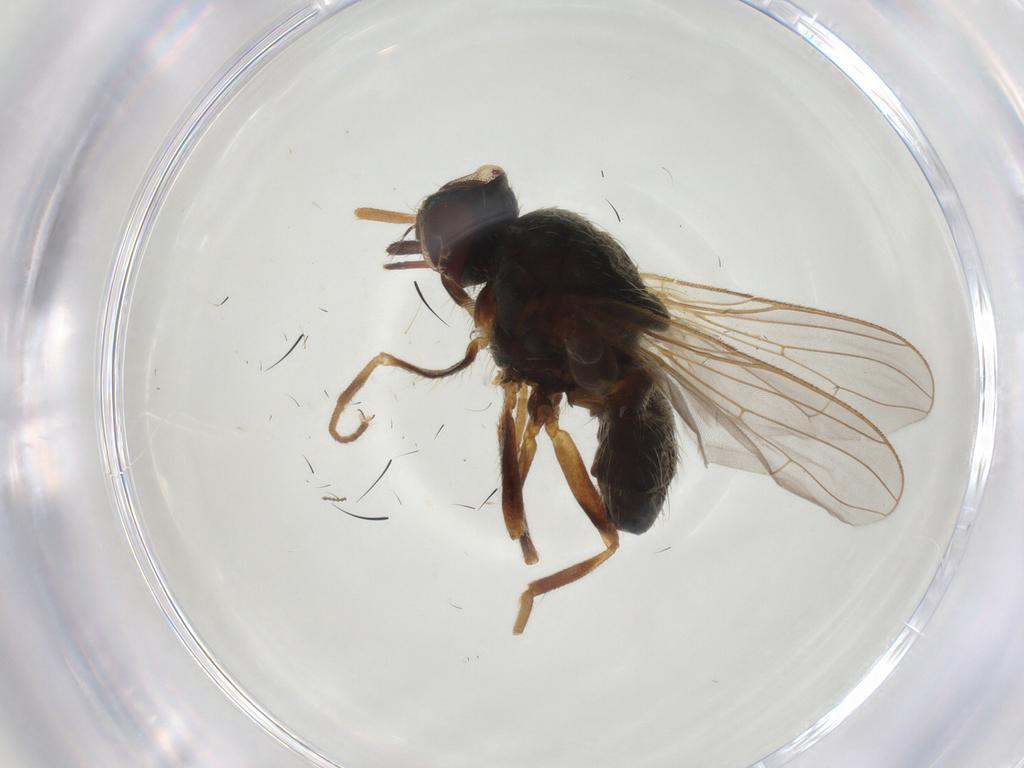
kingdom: Animalia
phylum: Arthropoda
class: Insecta
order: Diptera
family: Muscidae
